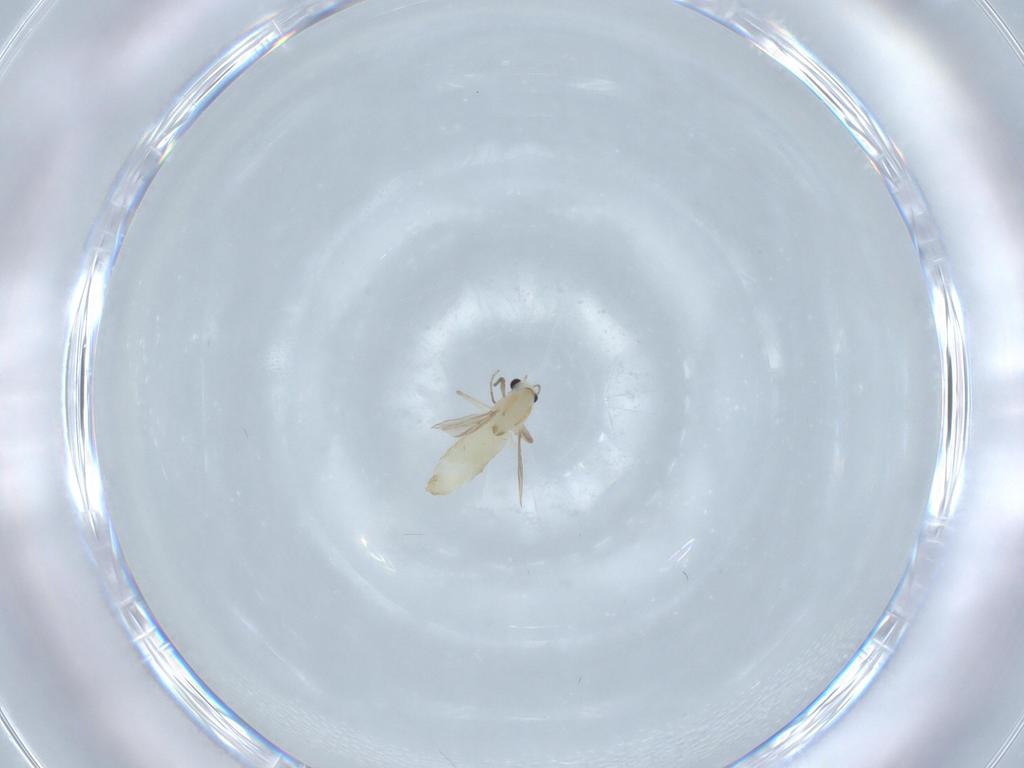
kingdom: Animalia
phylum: Arthropoda
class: Insecta
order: Diptera
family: Chironomidae
